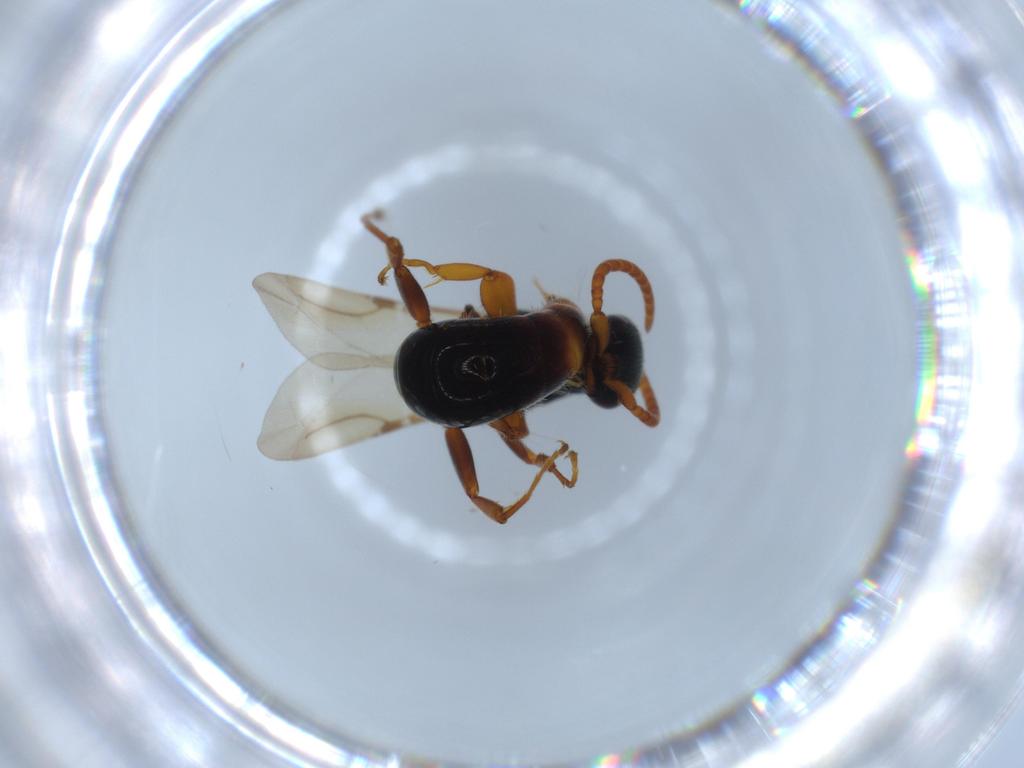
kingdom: Animalia
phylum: Arthropoda
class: Insecta
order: Hymenoptera
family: Bethylidae
